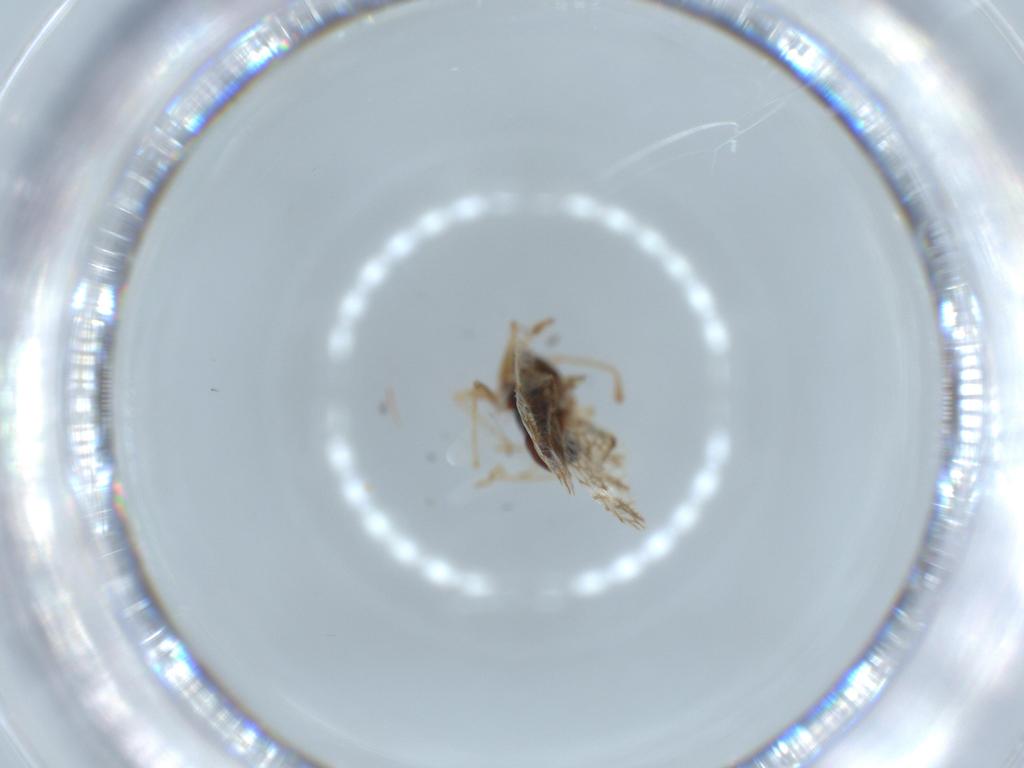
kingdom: Animalia
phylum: Arthropoda
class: Insecta
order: Hemiptera
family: Tingidae
